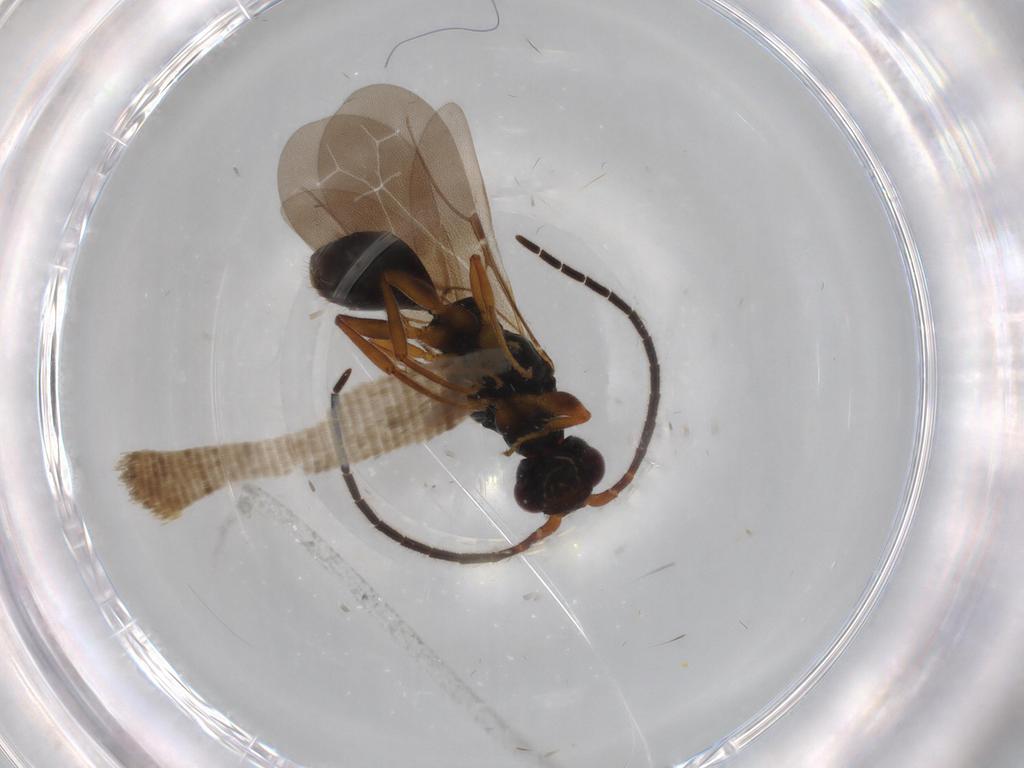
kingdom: Animalia
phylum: Arthropoda
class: Insecta
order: Hymenoptera
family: Bethylidae
